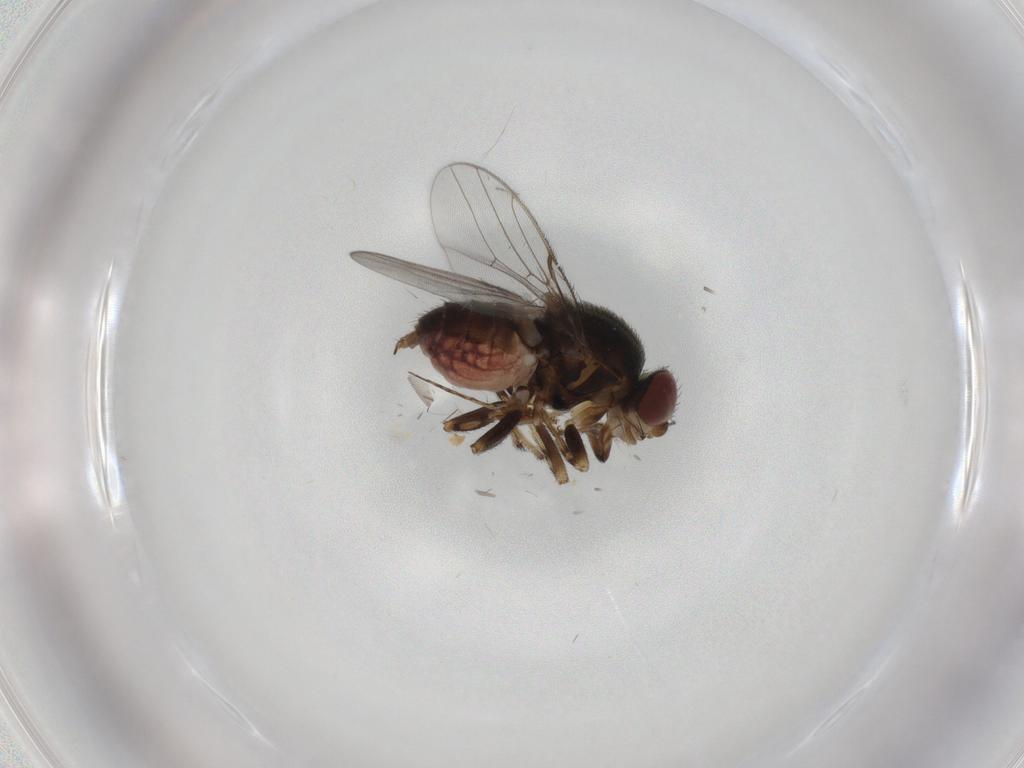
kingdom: Animalia
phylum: Arthropoda
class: Insecta
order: Diptera
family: Chloropidae
